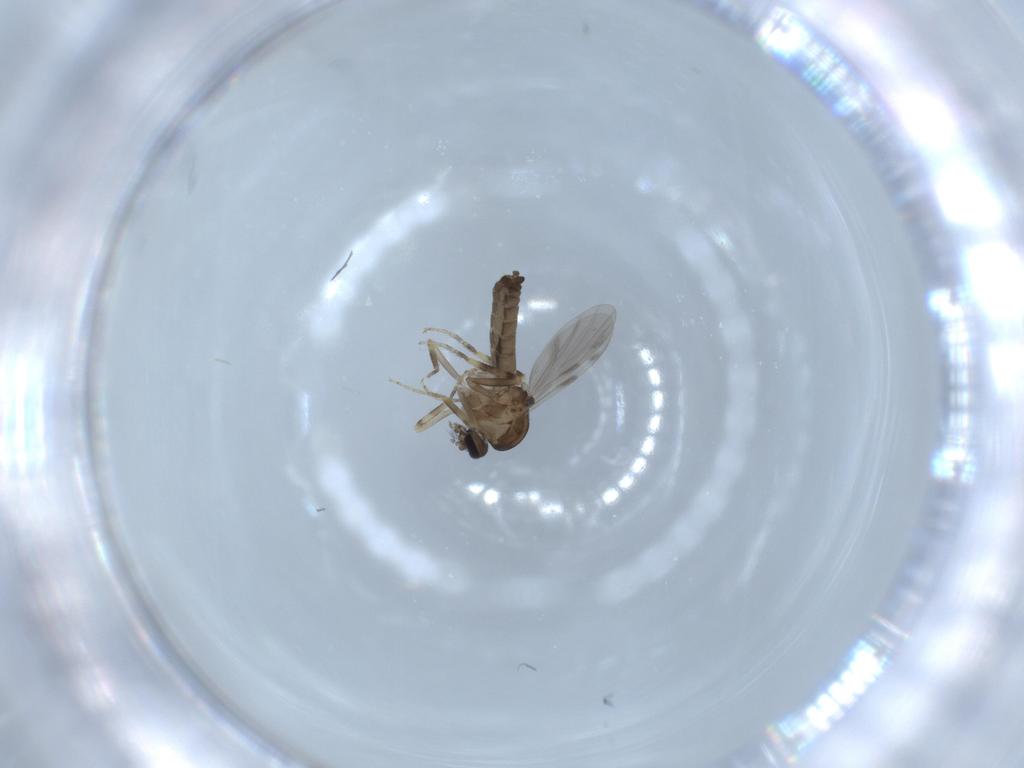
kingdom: Animalia
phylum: Arthropoda
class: Insecta
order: Diptera
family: Ceratopogonidae
